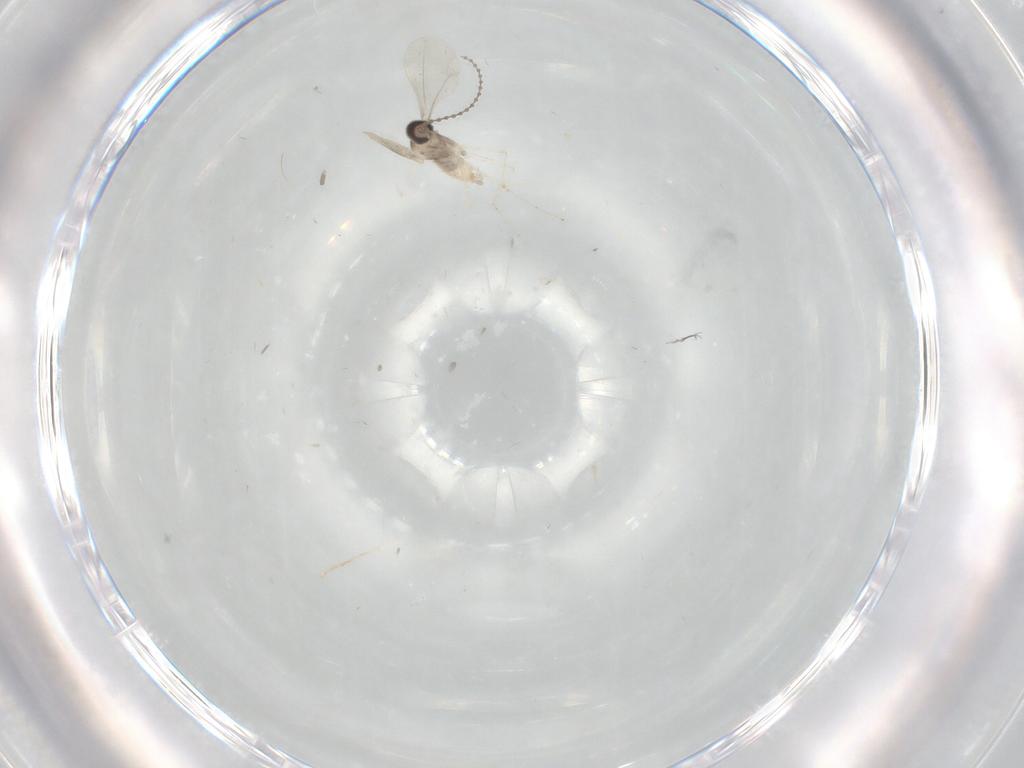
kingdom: Animalia
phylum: Arthropoda
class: Insecta
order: Diptera
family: Cecidomyiidae
